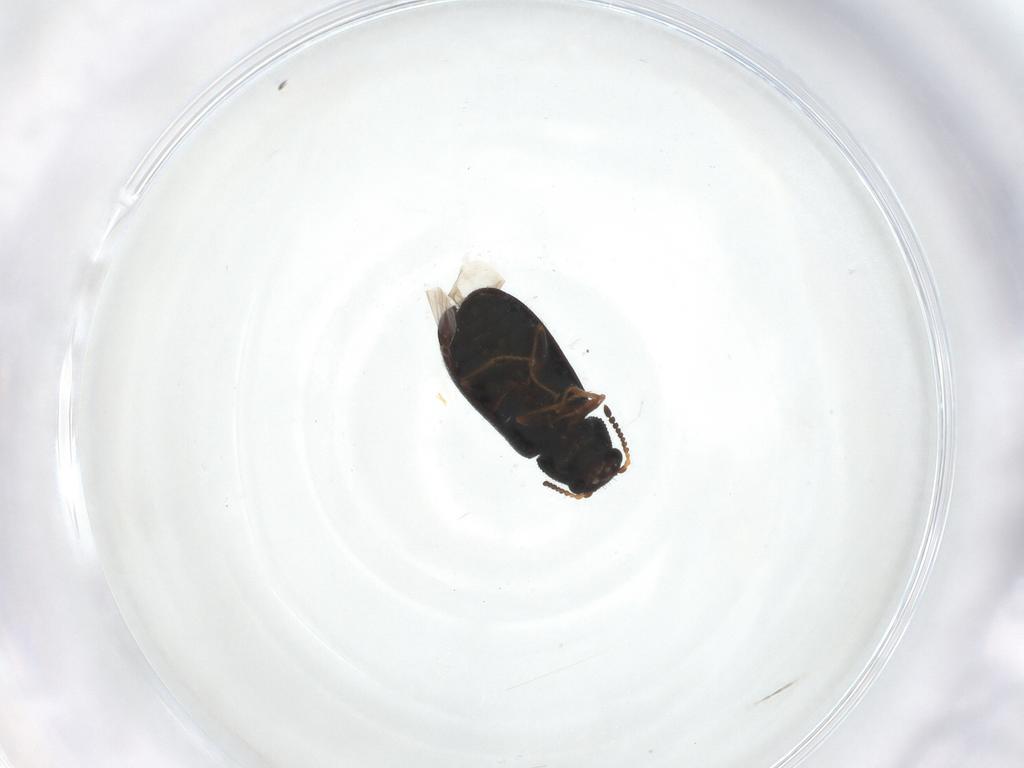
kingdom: Animalia
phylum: Arthropoda
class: Insecta
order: Coleoptera
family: Melyridae
